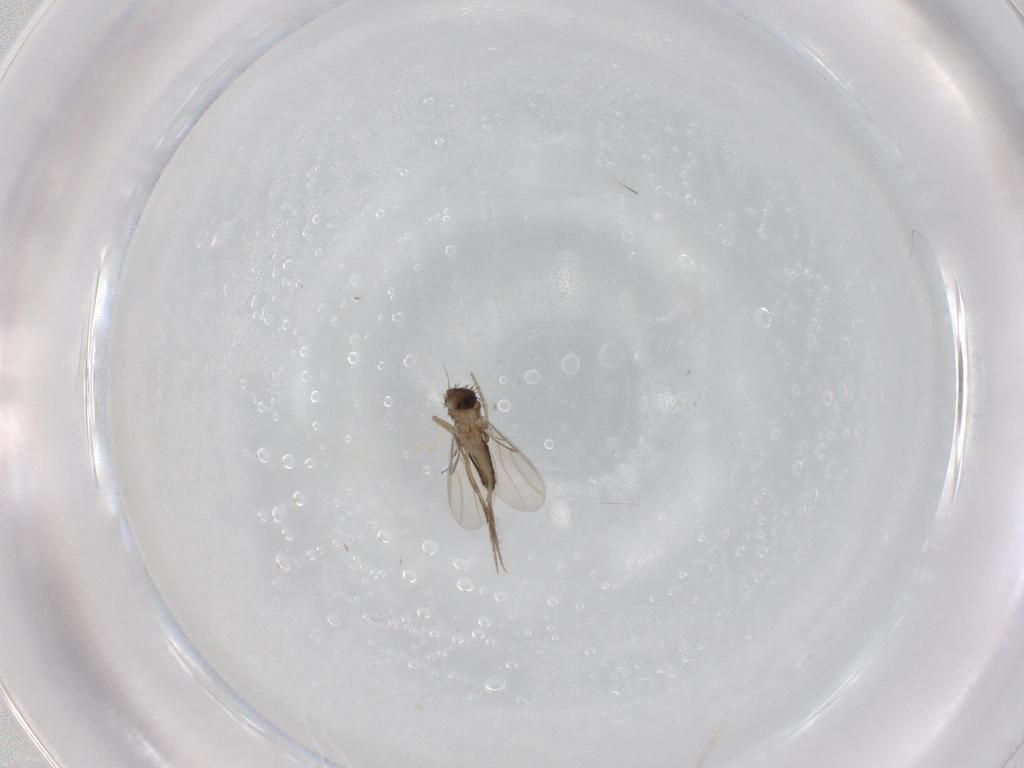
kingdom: Animalia
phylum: Arthropoda
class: Insecta
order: Diptera
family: Phoridae
